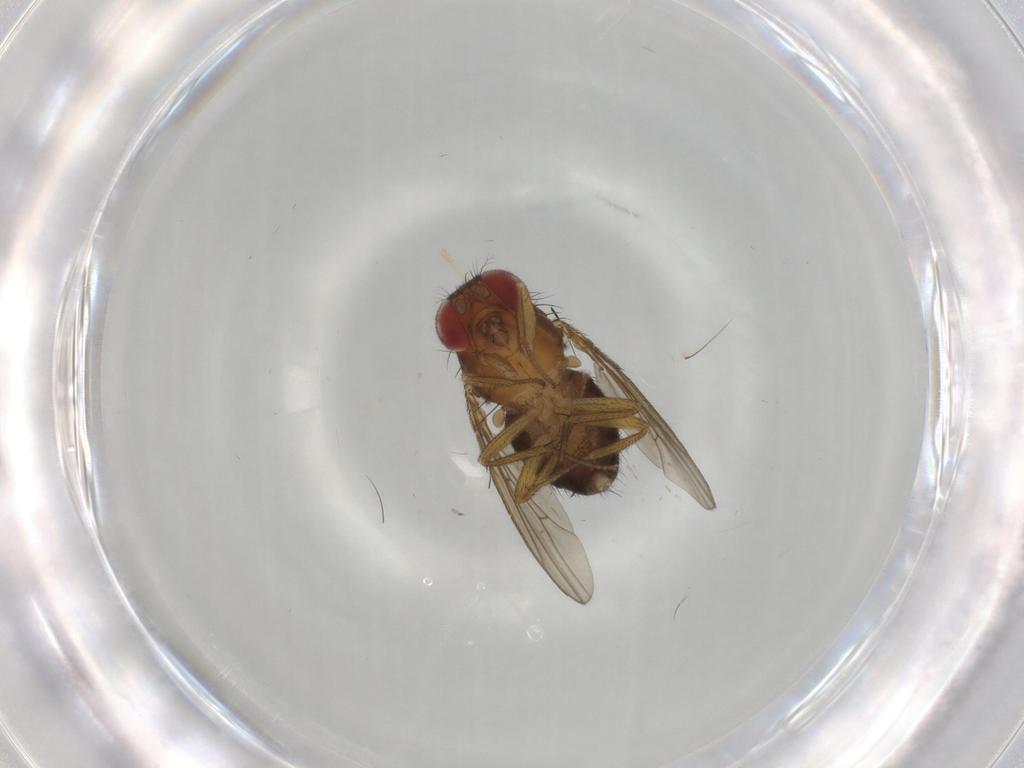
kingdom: Animalia
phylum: Arthropoda
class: Insecta
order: Diptera
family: Drosophilidae
